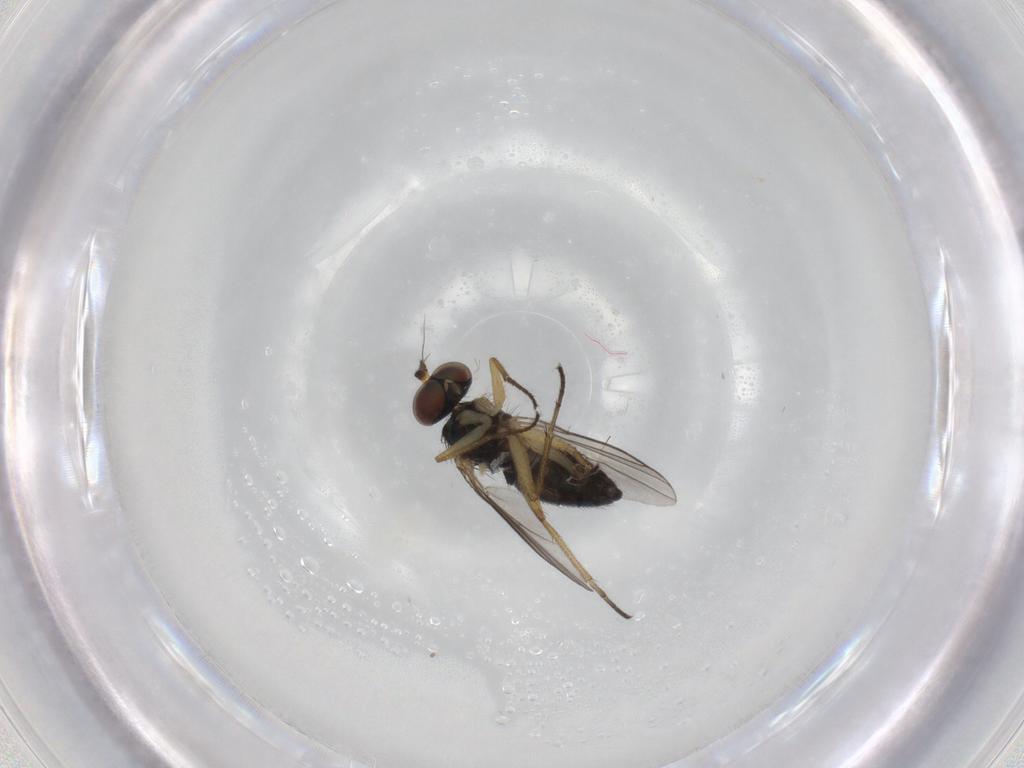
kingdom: Animalia
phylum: Arthropoda
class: Insecta
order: Diptera
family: Dolichopodidae
